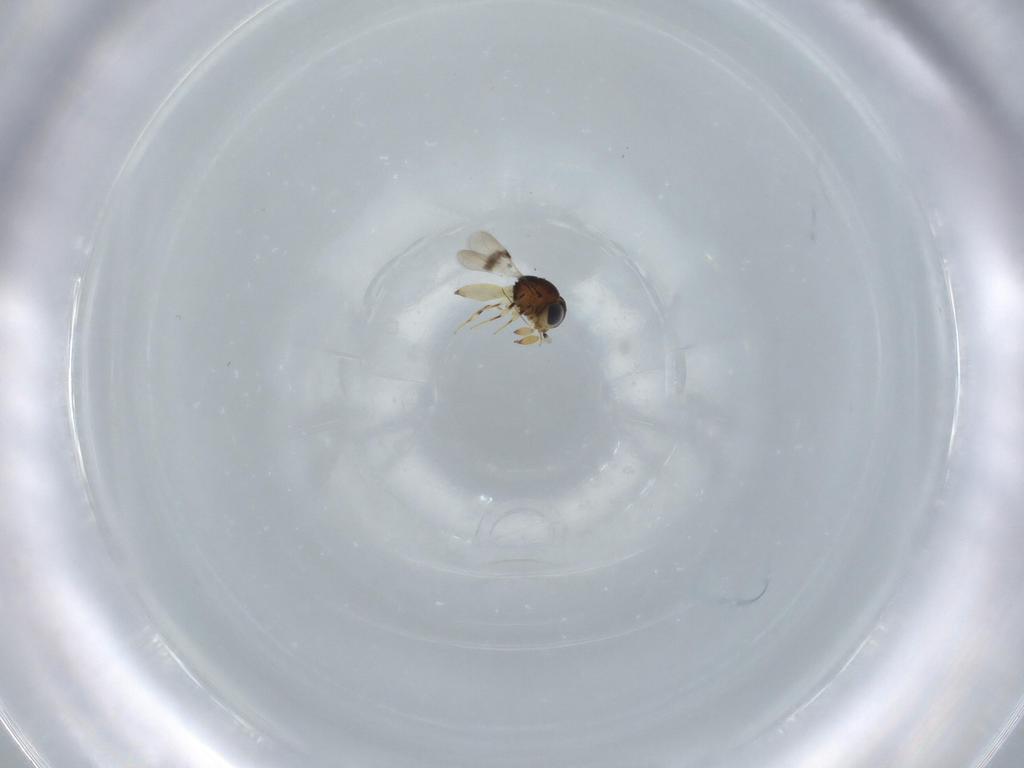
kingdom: Animalia
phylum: Arthropoda
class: Insecta
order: Hymenoptera
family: Scelionidae
